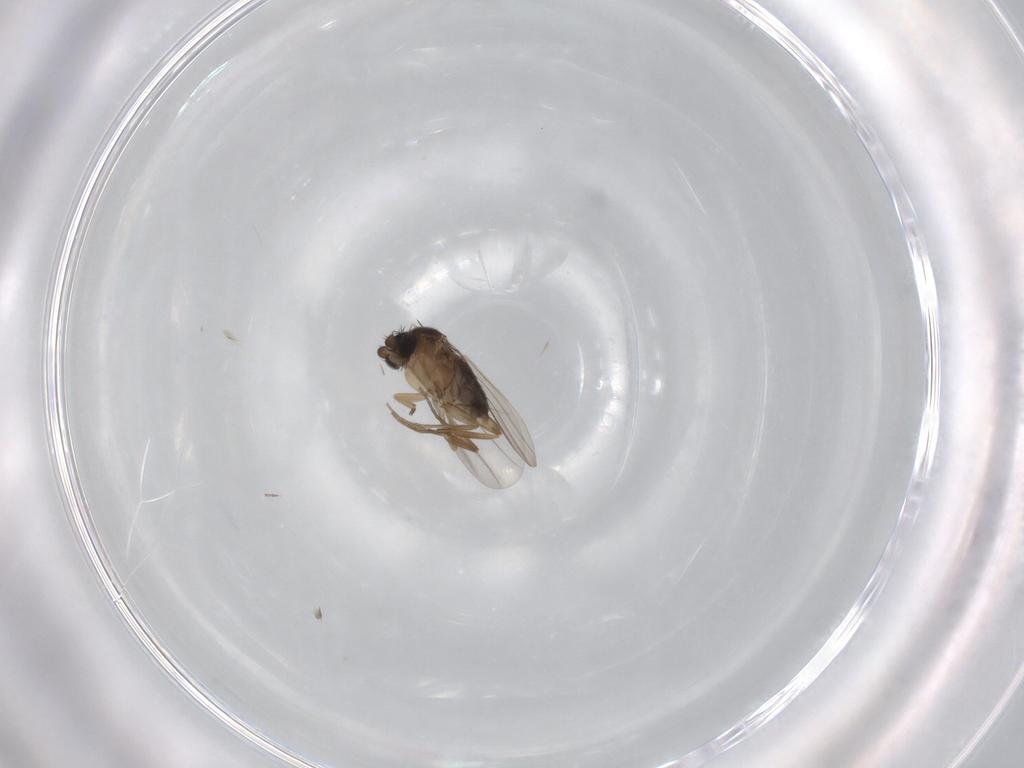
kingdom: Animalia
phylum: Arthropoda
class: Insecta
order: Diptera
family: Phoridae
